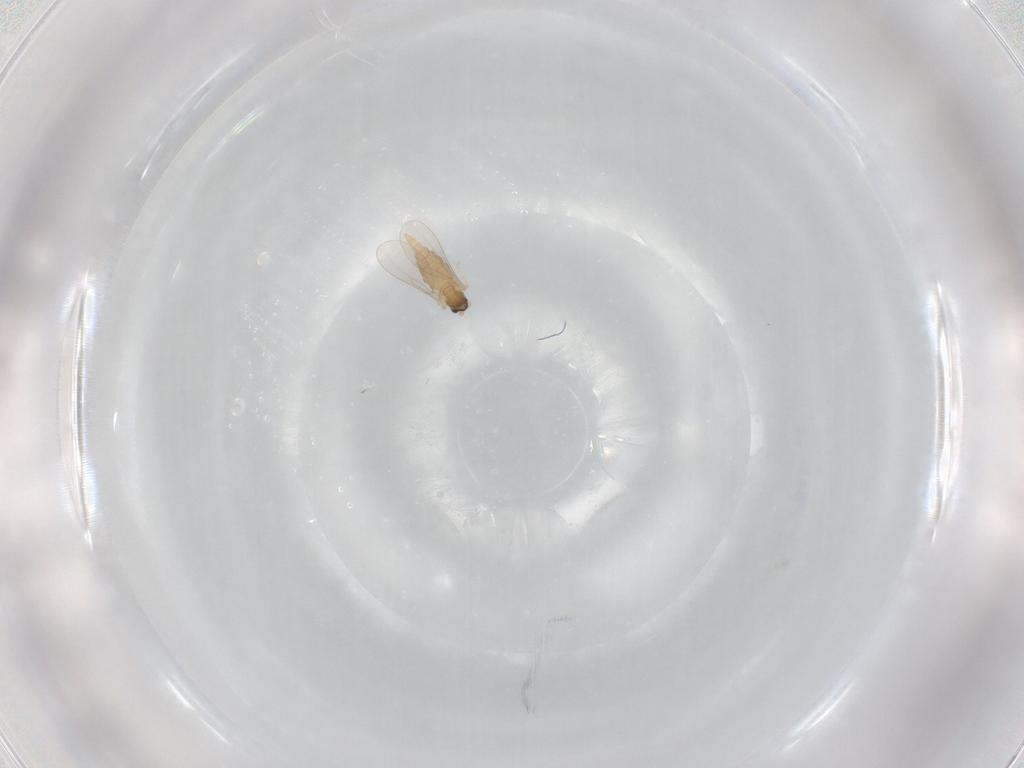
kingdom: Animalia
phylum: Arthropoda
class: Insecta
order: Diptera
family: Cecidomyiidae
